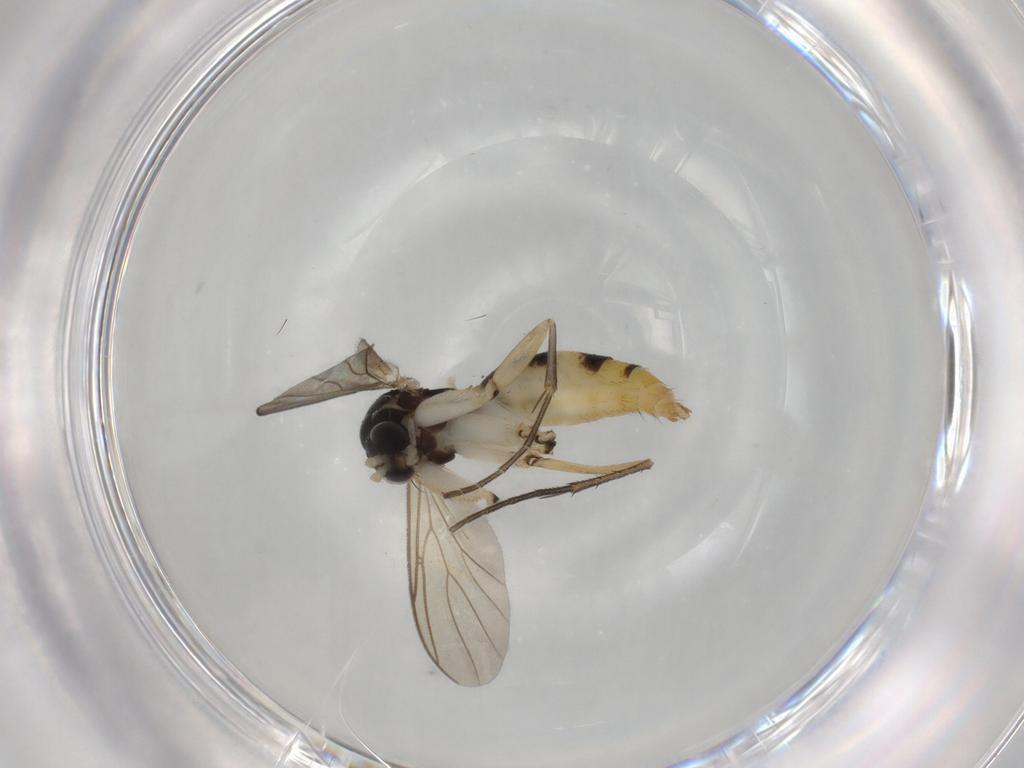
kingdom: Animalia
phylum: Arthropoda
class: Insecta
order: Diptera
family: Mycetophilidae
